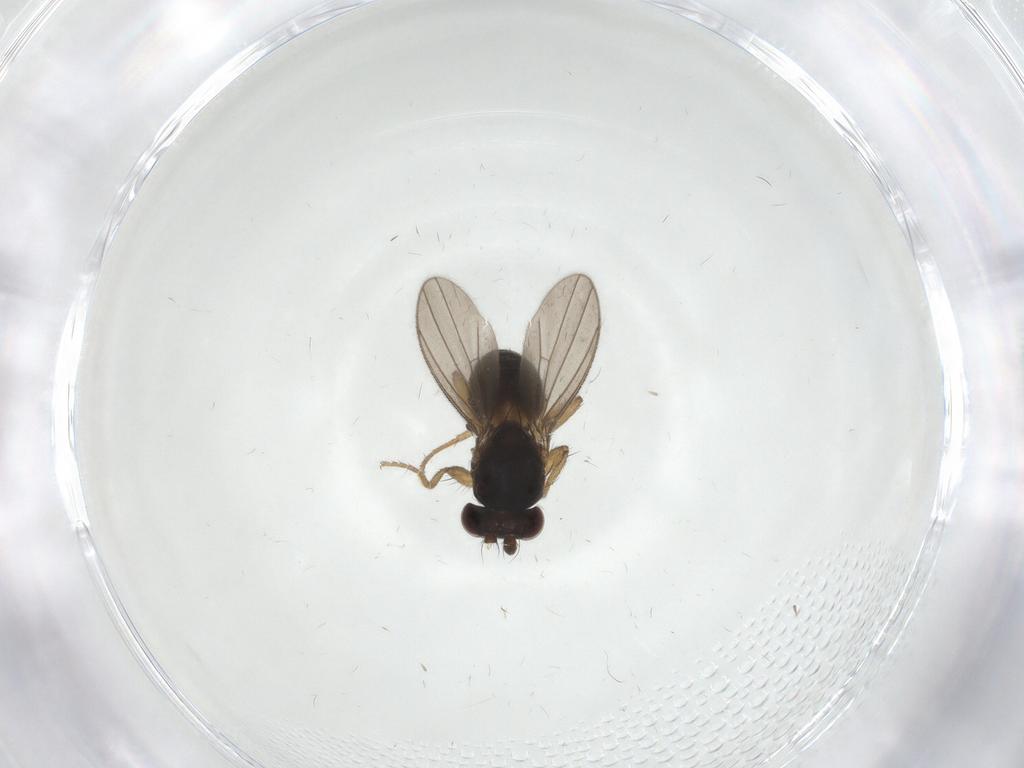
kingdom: Animalia
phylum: Arthropoda
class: Insecta
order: Diptera
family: Inbiomyiidae
